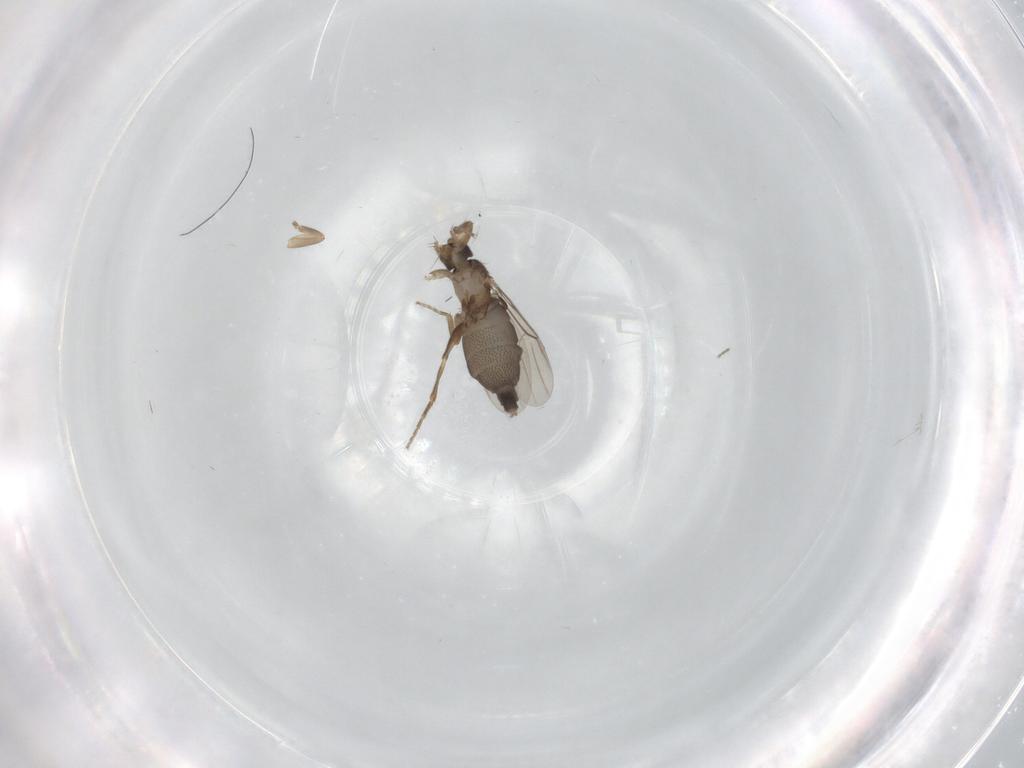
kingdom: Animalia
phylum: Arthropoda
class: Insecta
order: Diptera
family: Phoridae
